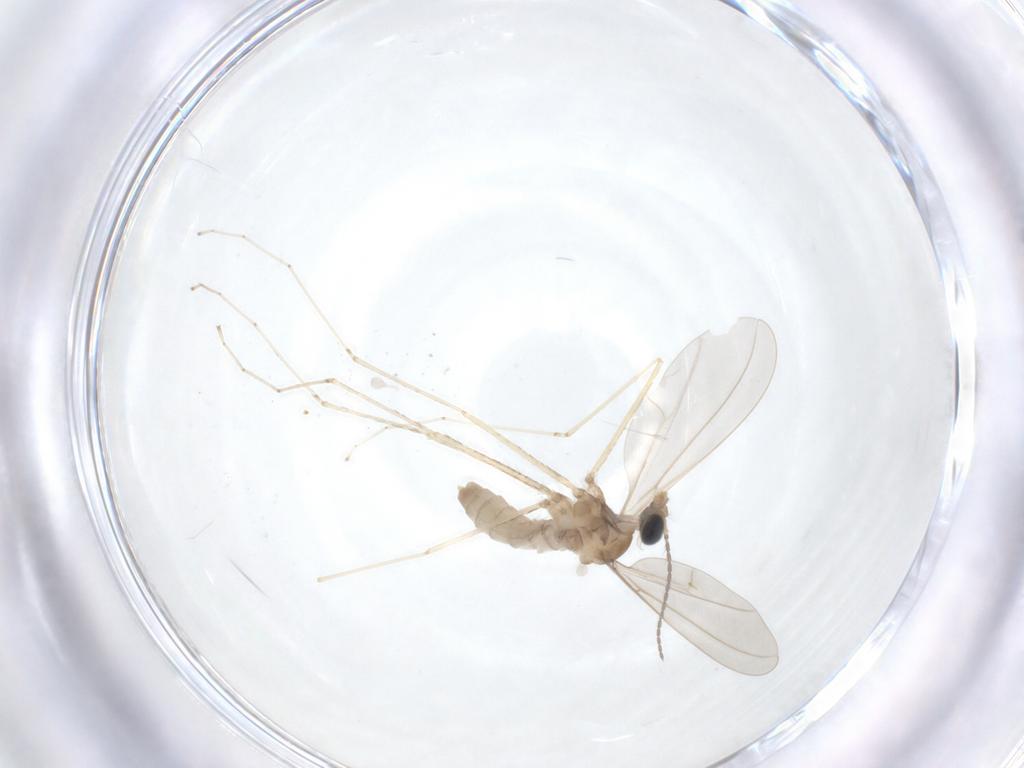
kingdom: Animalia
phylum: Arthropoda
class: Insecta
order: Diptera
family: Cecidomyiidae
